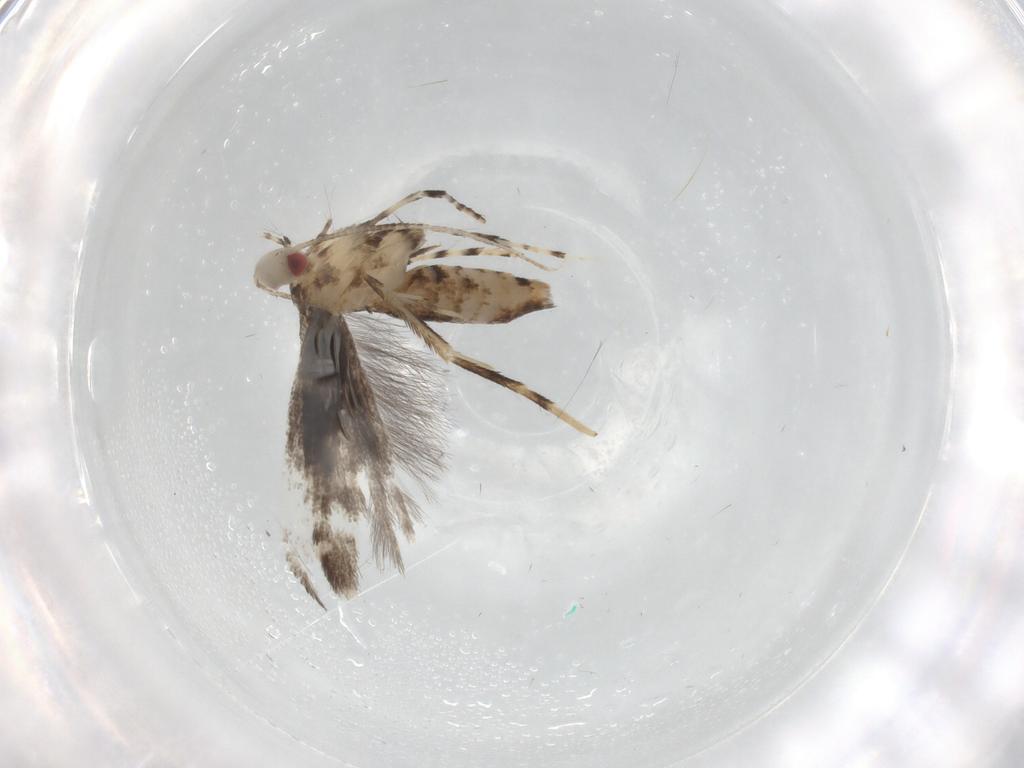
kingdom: Animalia
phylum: Arthropoda
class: Insecta
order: Lepidoptera
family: Gracillariidae
